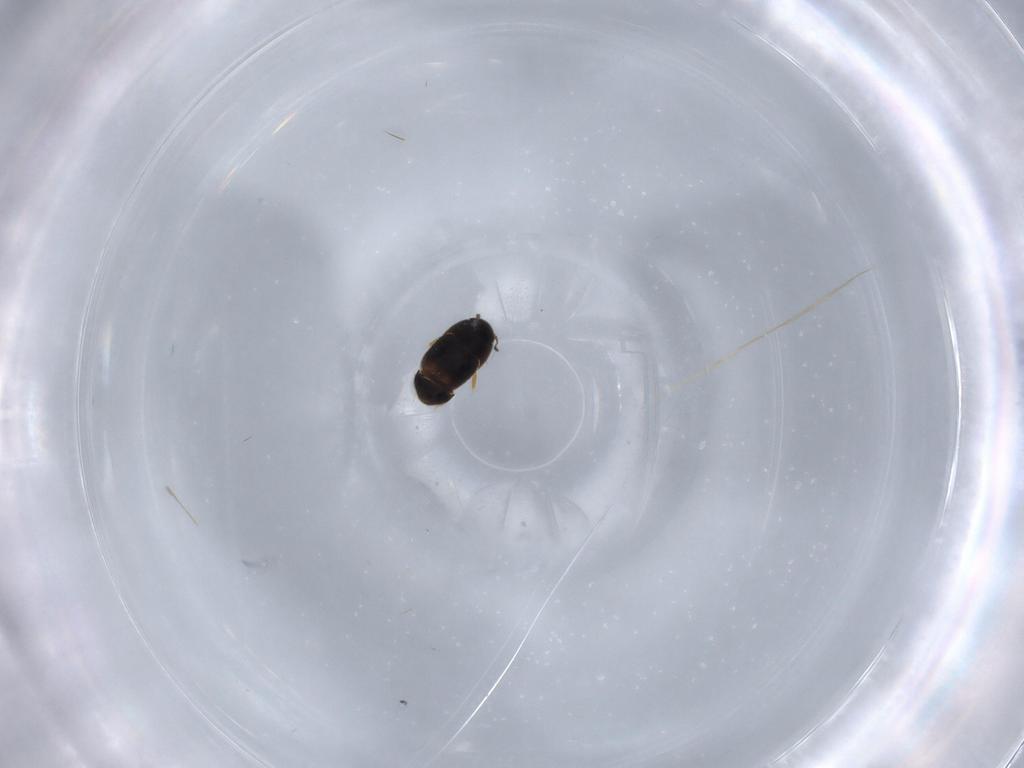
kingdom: Animalia
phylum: Arthropoda
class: Insecta
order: Coleoptera
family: Ptiliidae
